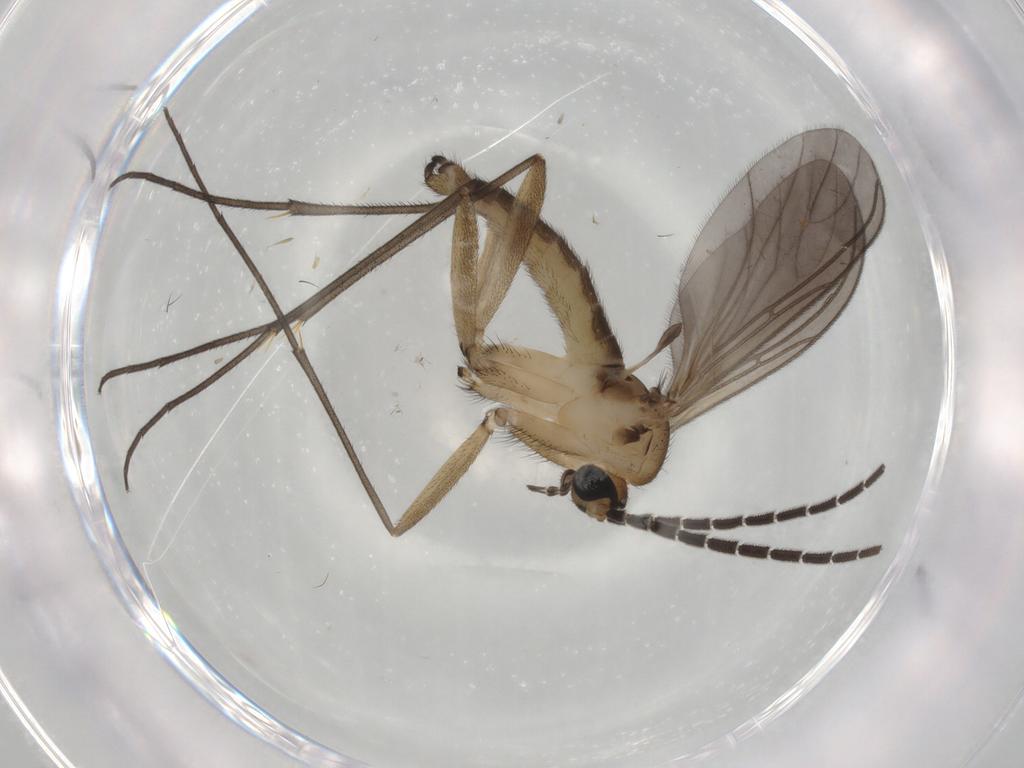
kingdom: Animalia
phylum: Arthropoda
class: Insecta
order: Diptera
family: Sciaridae
